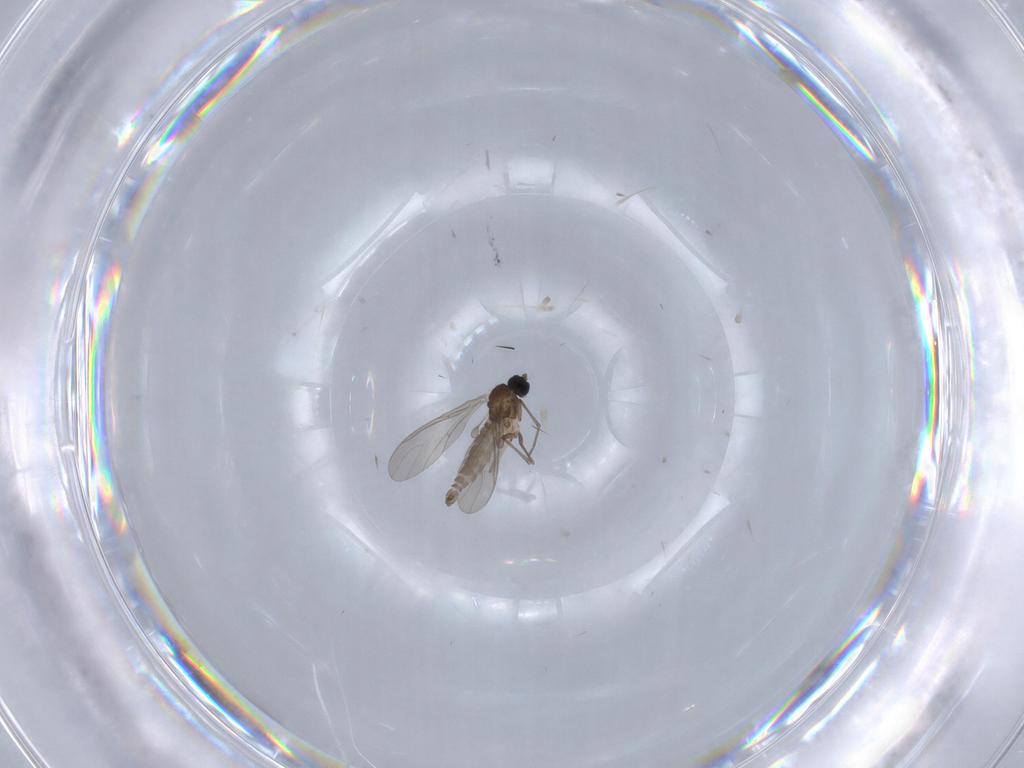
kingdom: Animalia
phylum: Arthropoda
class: Insecta
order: Diptera
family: Sciaridae
